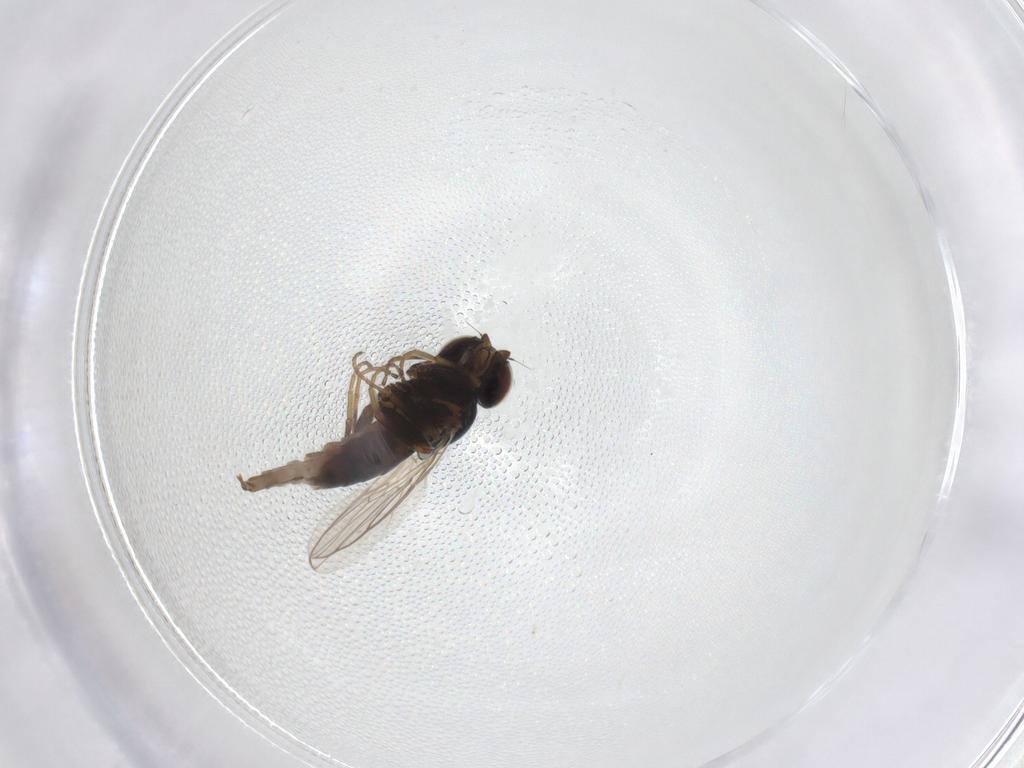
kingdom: Animalia
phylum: Arthropoda
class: Insecta
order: Diptera
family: Chloropidae
